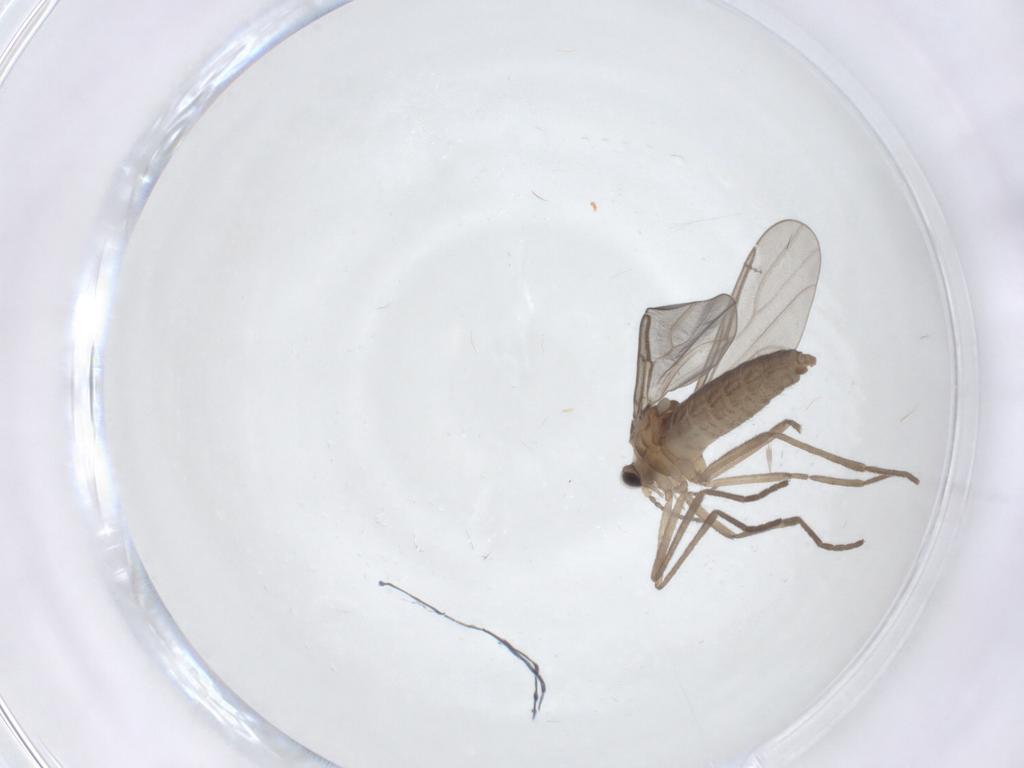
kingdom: Animalia
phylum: Arthropoda
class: Insecta
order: Diptera
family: Cecidomyiidae
